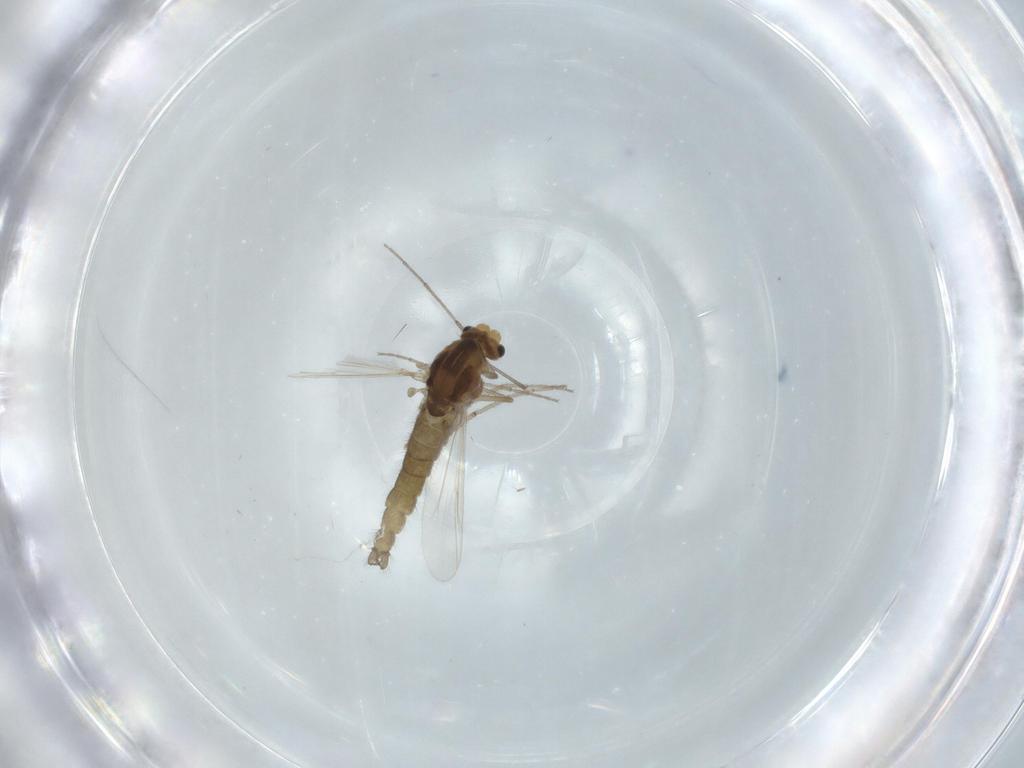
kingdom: Animalia
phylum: Arthropoda
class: Insecta
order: Diptera
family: Chironomidae
